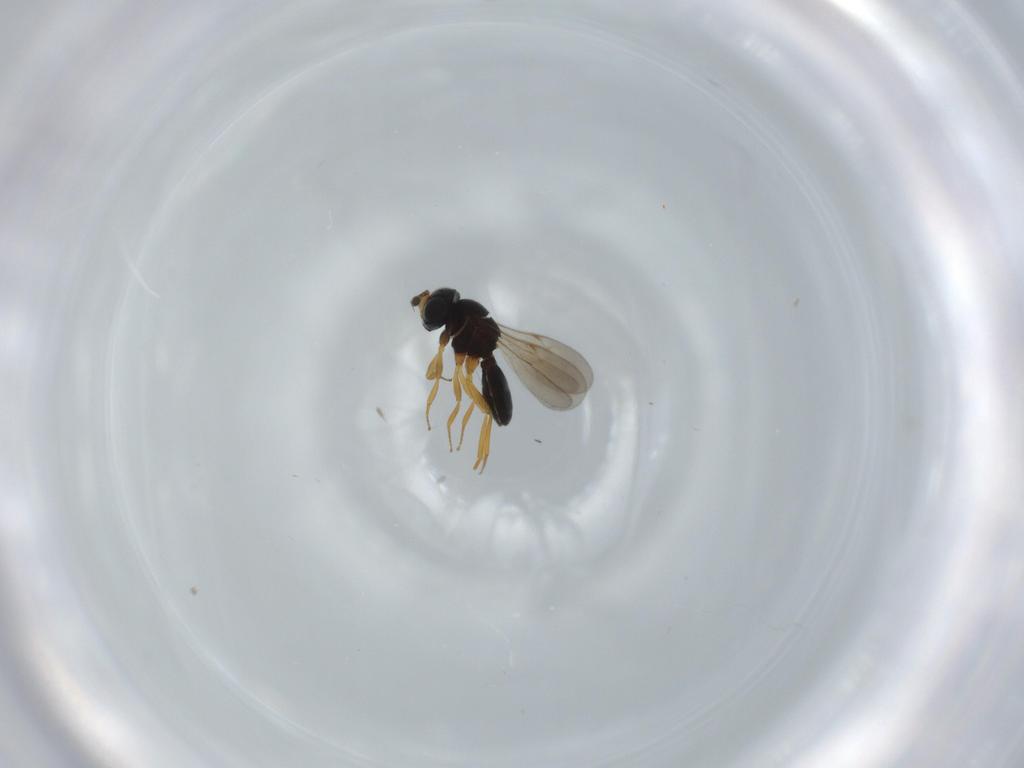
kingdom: Animalia
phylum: Arthropoda
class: Insecta
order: Hymenoptera
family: Scelionidae
